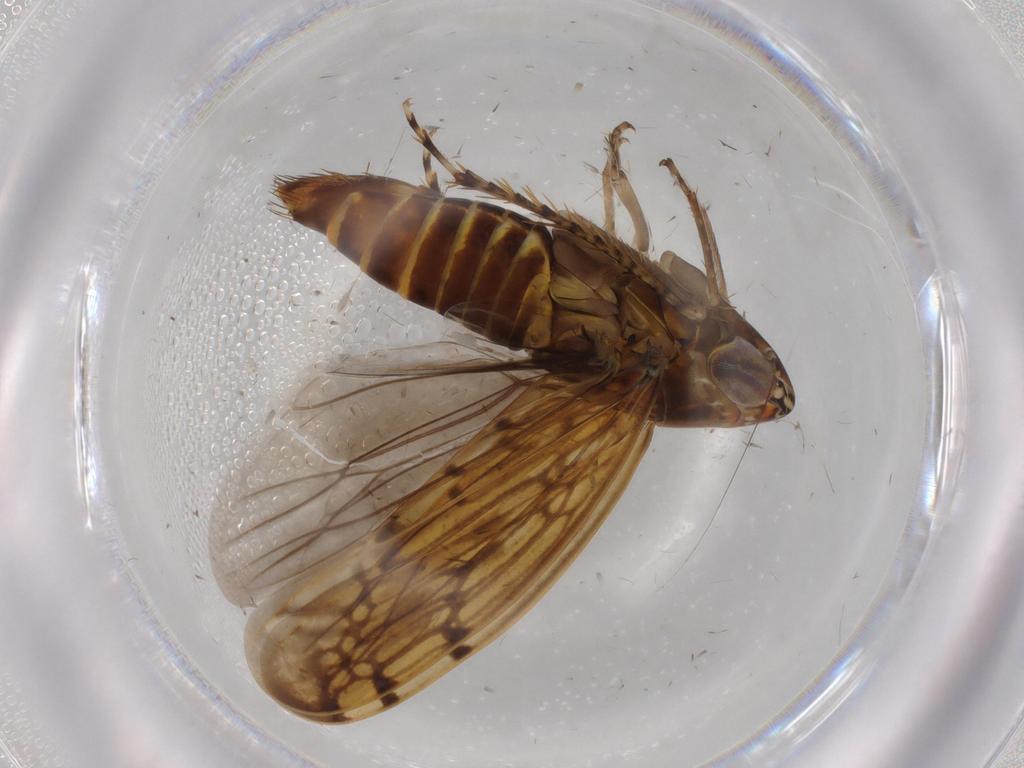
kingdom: Animalia
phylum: Arthropoda
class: Insecta
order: Hemiptera
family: Cicadellidae
